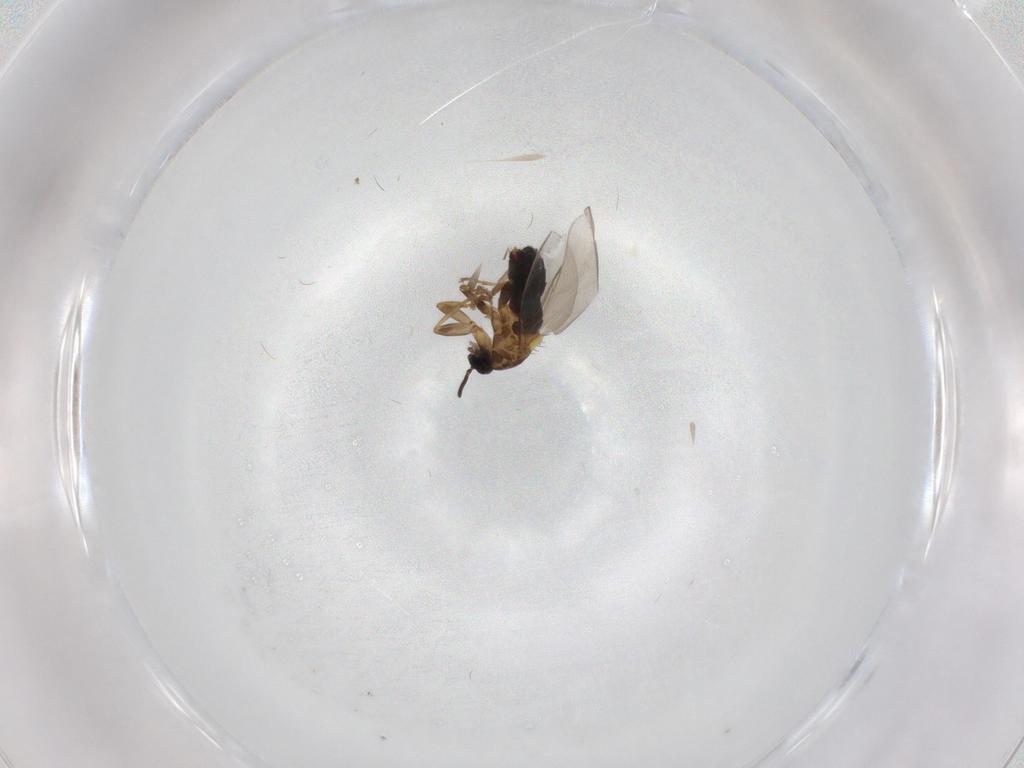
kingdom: Animalia
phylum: Arthropoda
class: Insecta
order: Diptera
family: Scatopsidae
